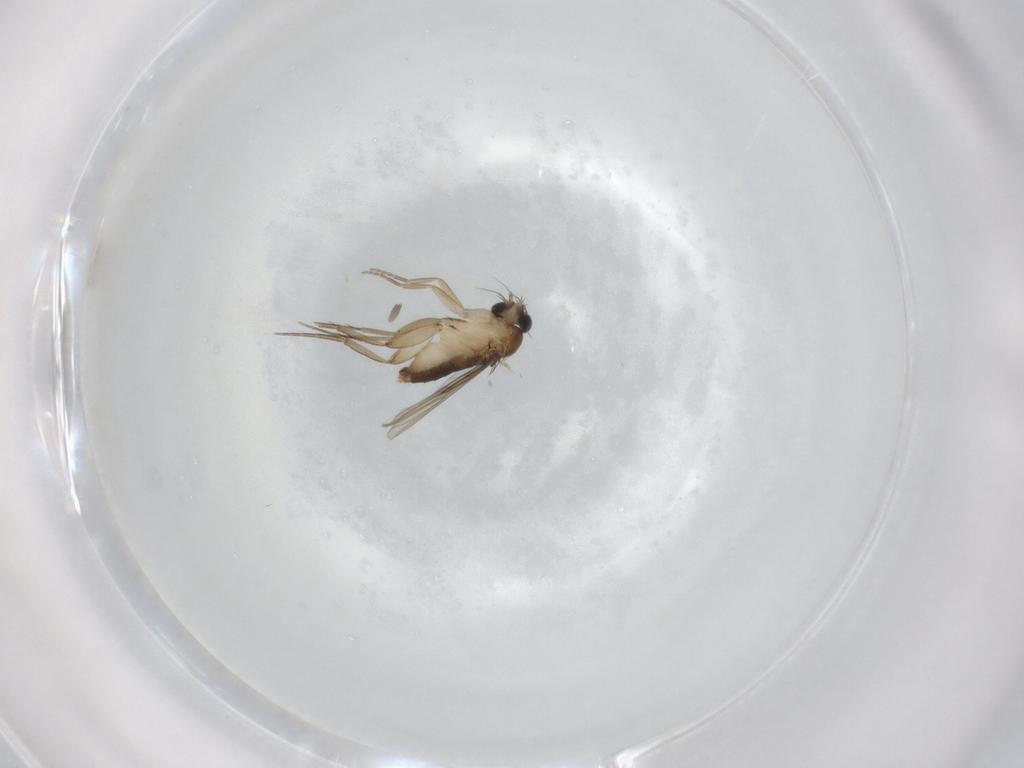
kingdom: Animalia
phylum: Arthropoda
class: Insecta
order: Diptera
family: Phoridae
